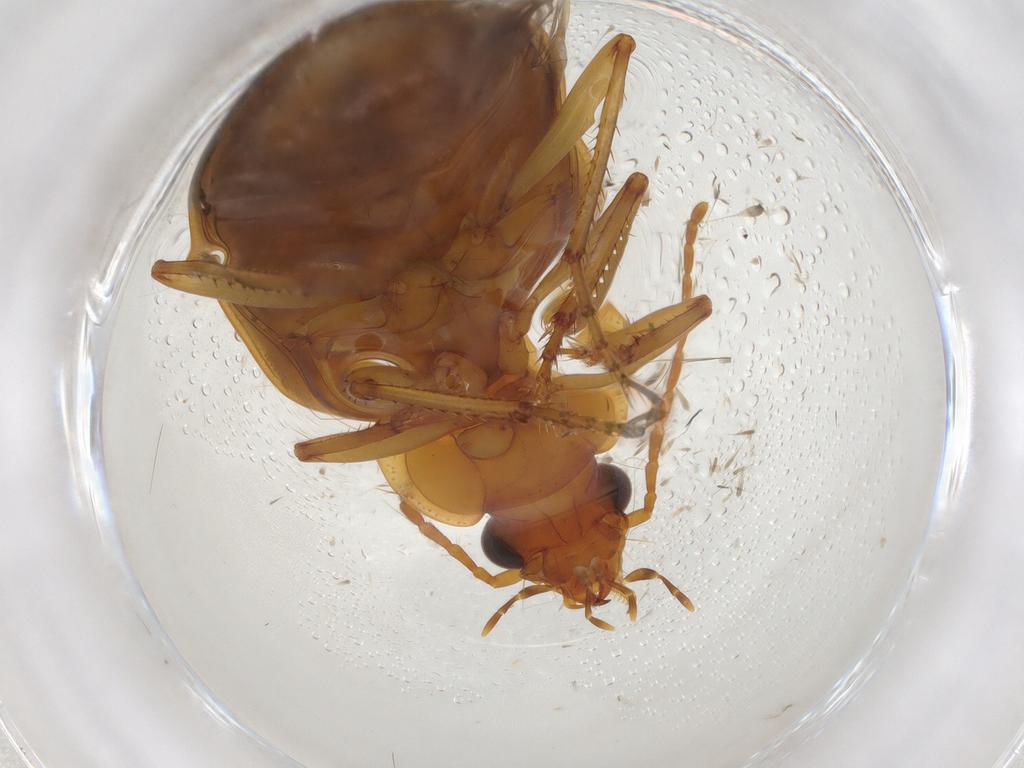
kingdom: Animalia
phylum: Arthropoda
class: Insecta
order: Coleoptera
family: Carabidae
